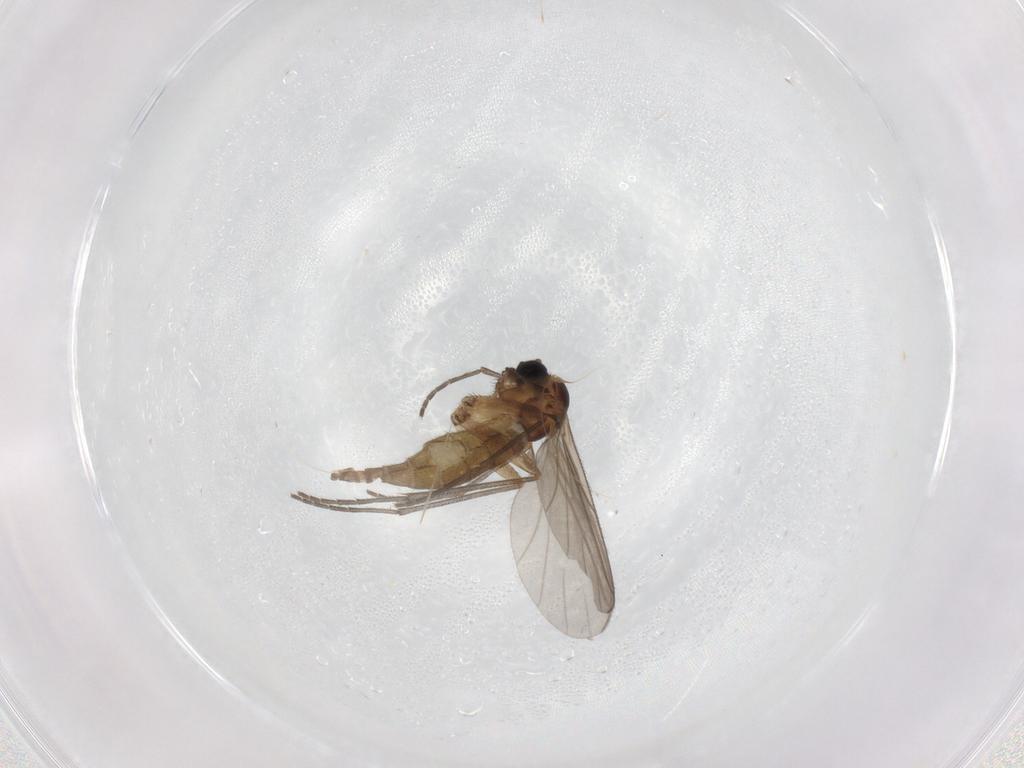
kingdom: Animalia
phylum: Arthropoda
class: Insecta
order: Diptera
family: Sciaridae
